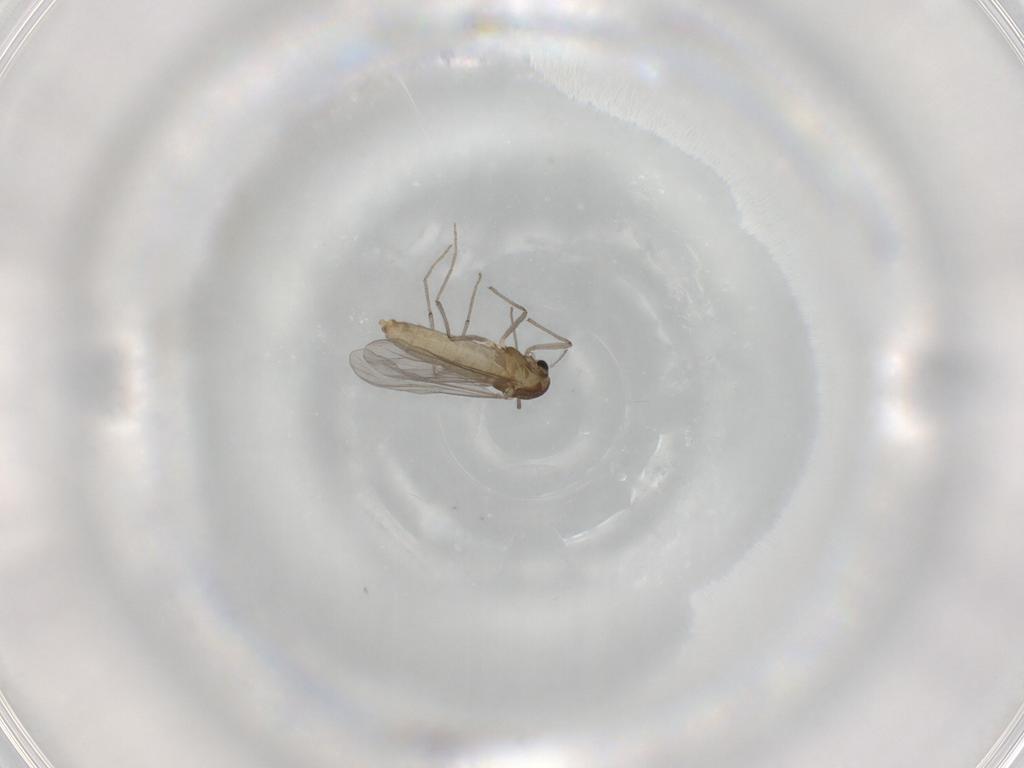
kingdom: Animalia
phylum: Arthropoda
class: Insecta
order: Diptera
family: Chironomidae
